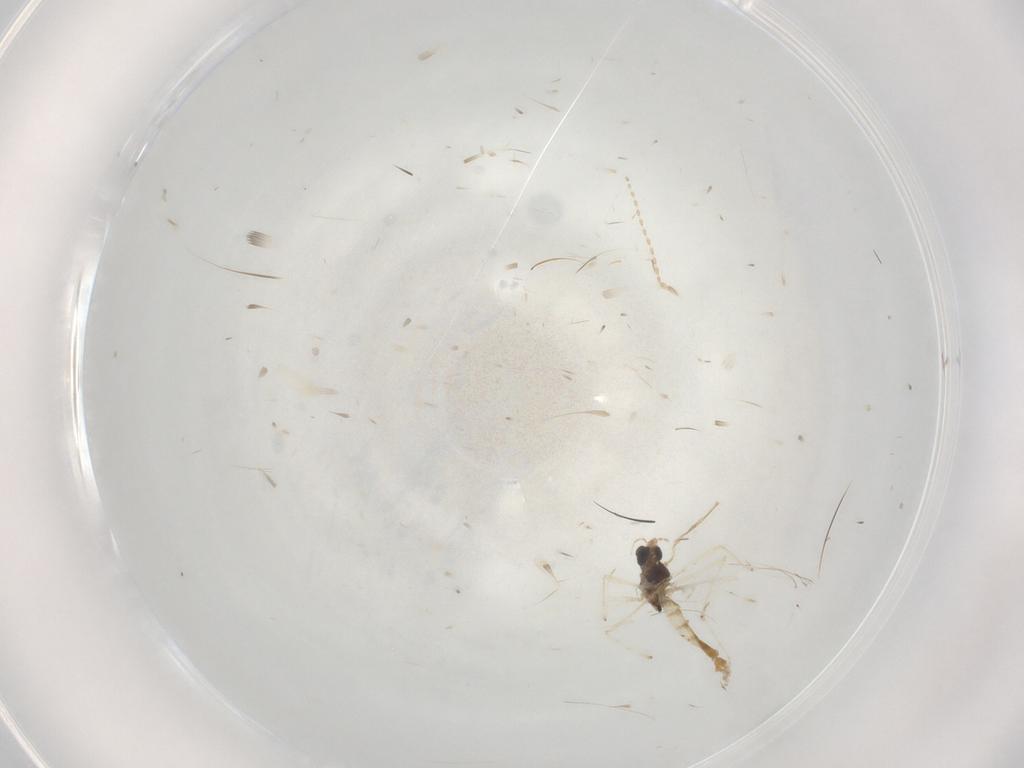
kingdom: Animalia
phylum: Arthropoda
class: Insecta
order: Diptera
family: Chironomidae
